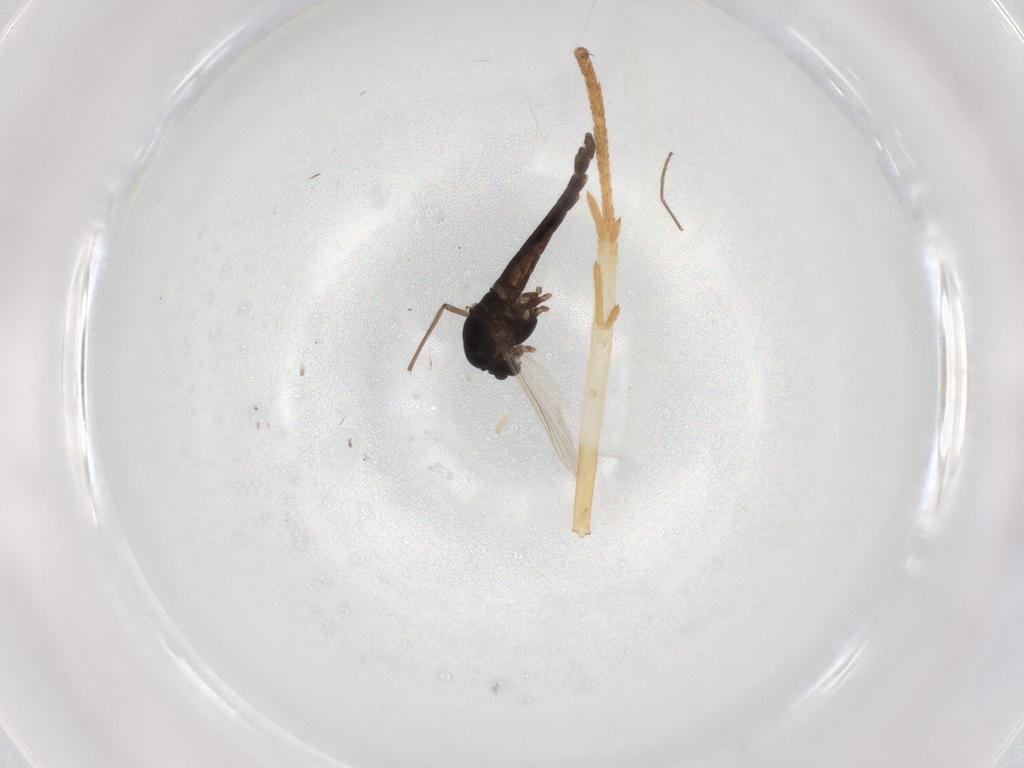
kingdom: Animalia
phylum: Arthropoda
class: Insecta
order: Diptera
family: Chironomidae
